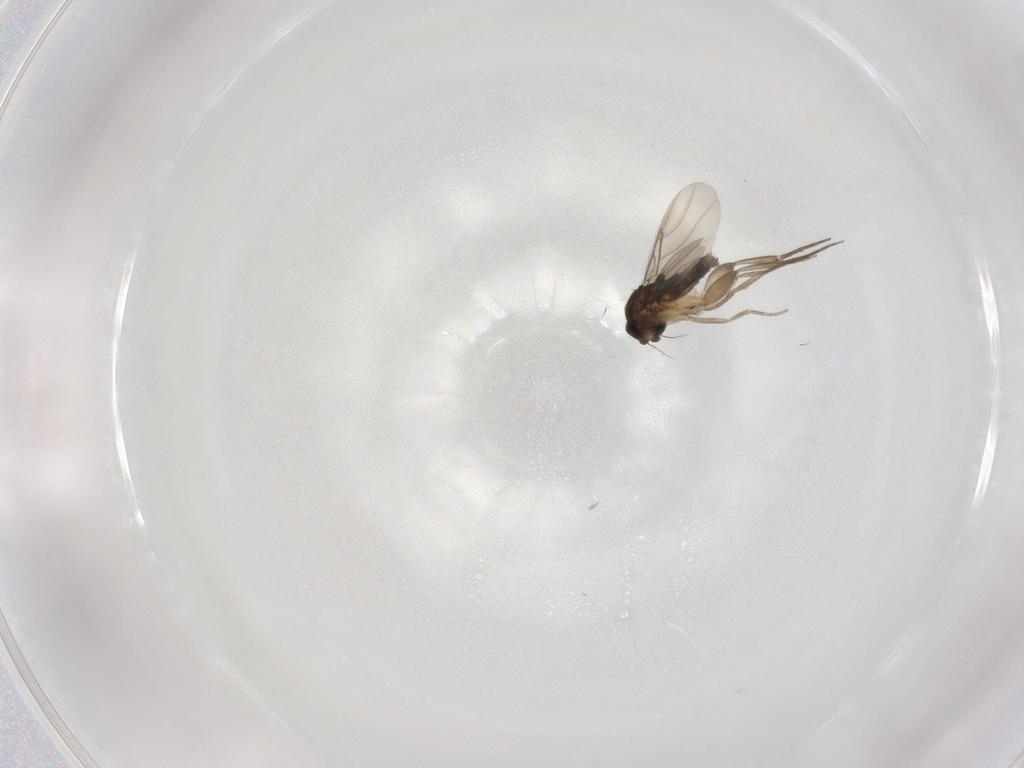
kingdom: Animalia
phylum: Arthropoda
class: Insecta
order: Diptera
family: Phoridae
